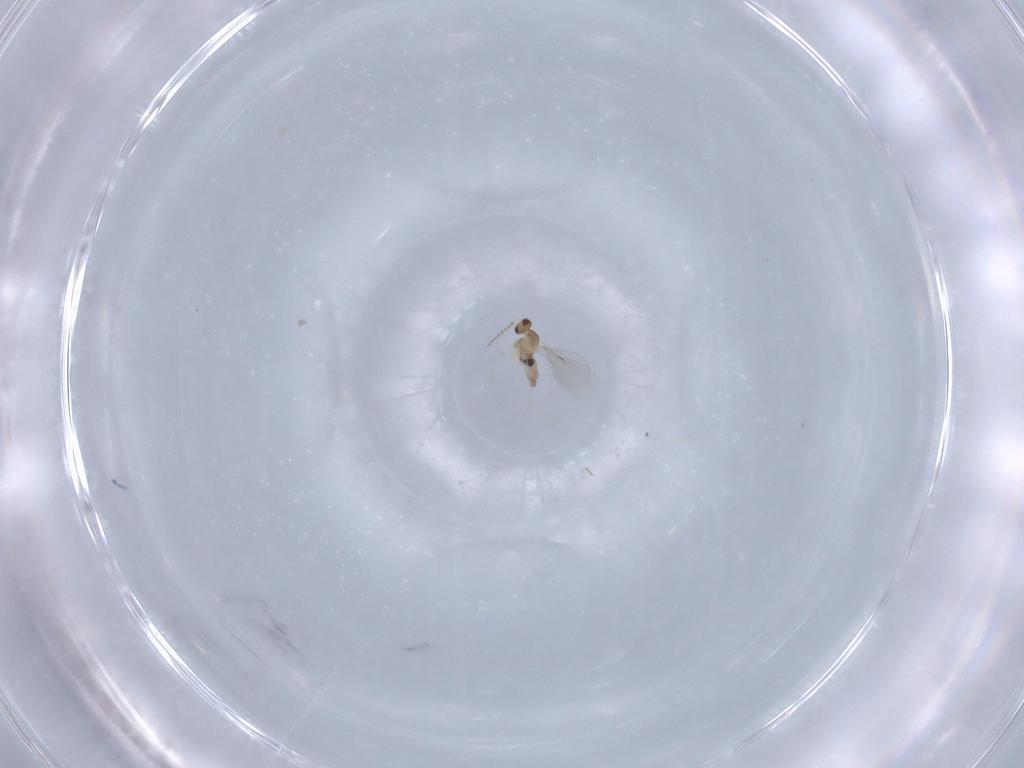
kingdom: Animalia
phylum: Arthropoda
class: Insecta
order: Diptera
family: Cecidomyiidae
